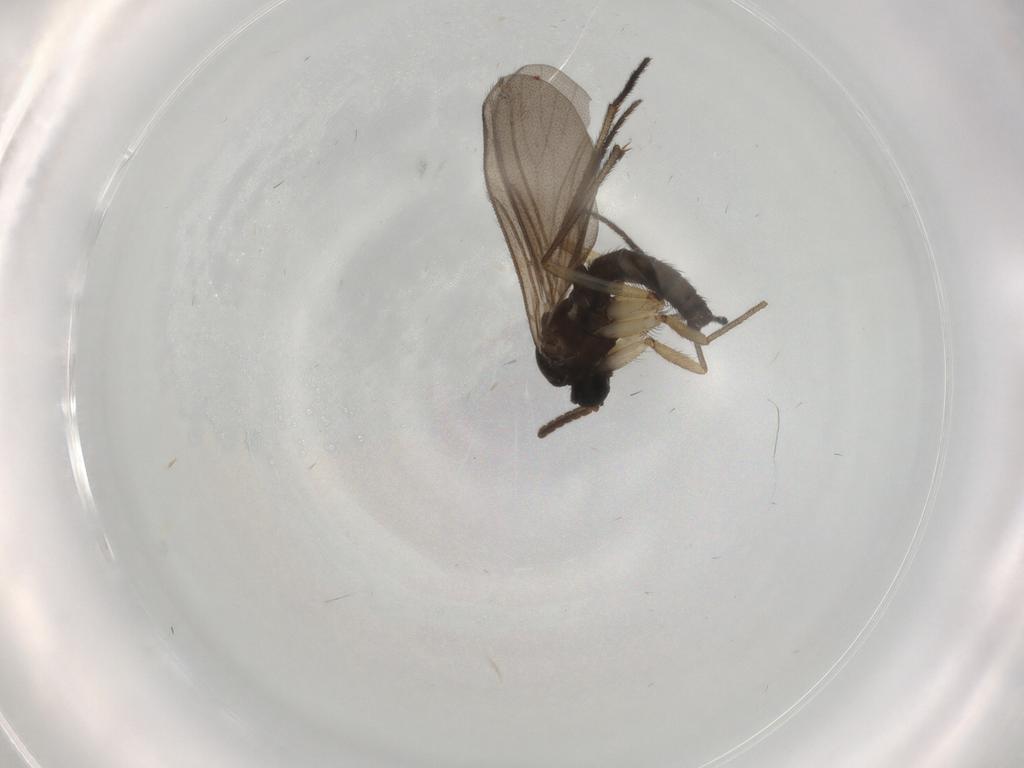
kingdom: Animalia
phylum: Arthropoda
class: Insecta
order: Diptera
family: Sciaridae
